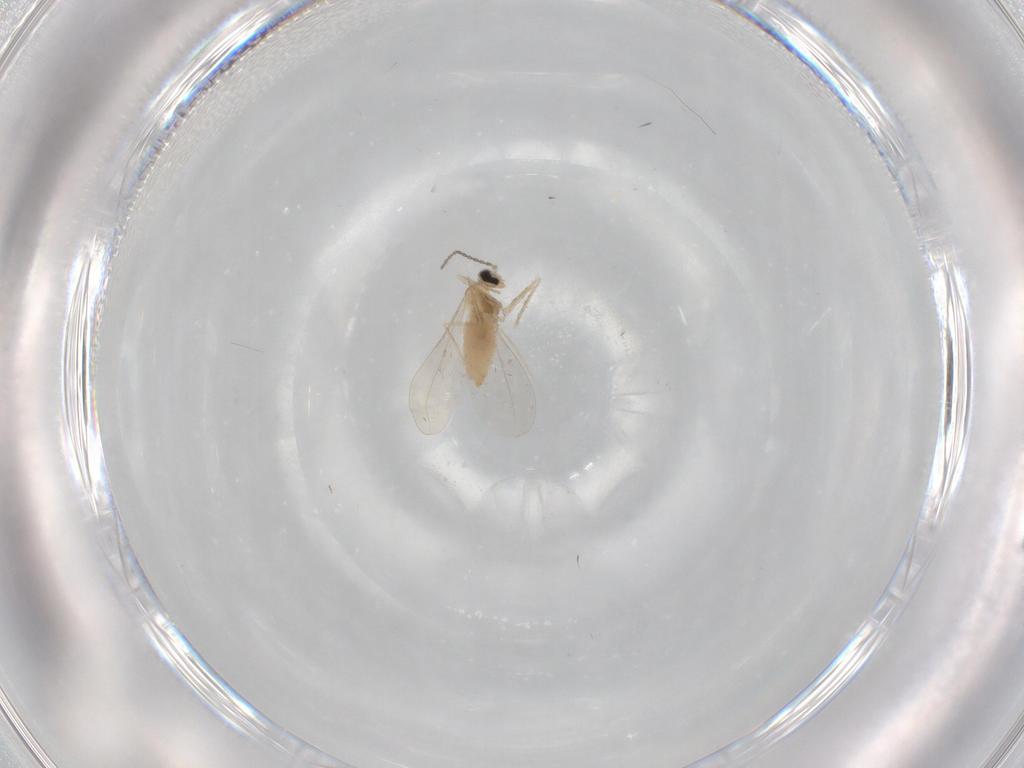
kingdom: Animalia
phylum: Arthropoda
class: Insecta
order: Diptera
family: Cecidomyiidae
